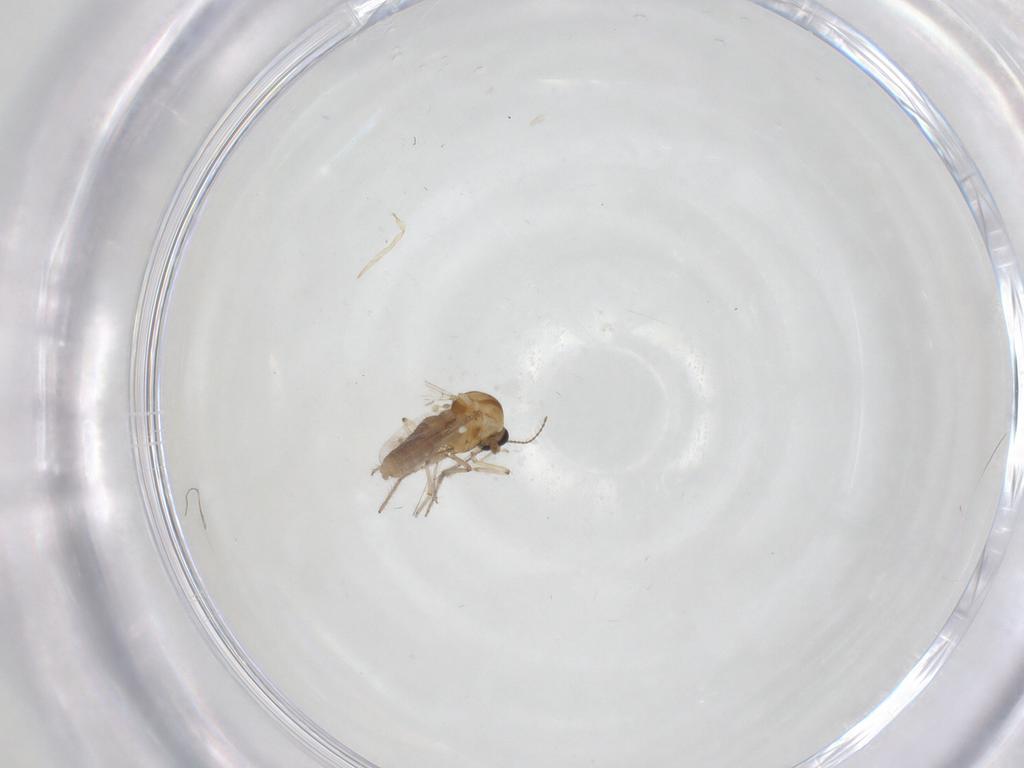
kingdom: Animalia
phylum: Arthropoda
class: Insecta
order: Diptera
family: Ceratopogonidae
